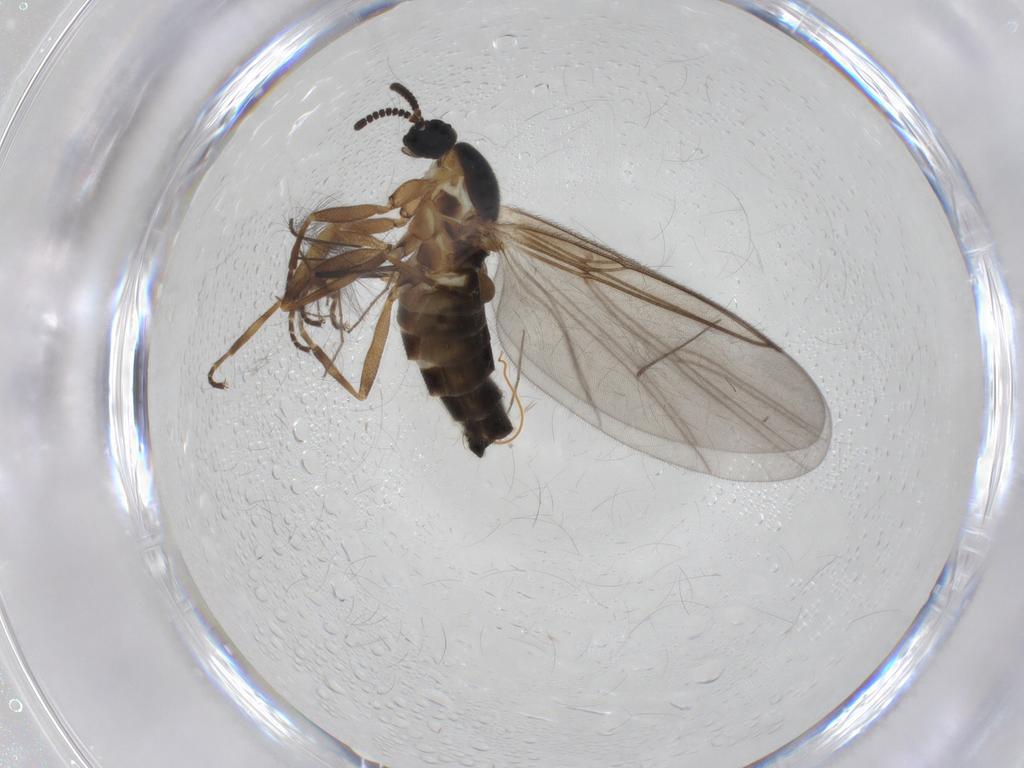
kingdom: Animalia
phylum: Arthropoda
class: Insecta
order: Diptera
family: Scatopsidae
